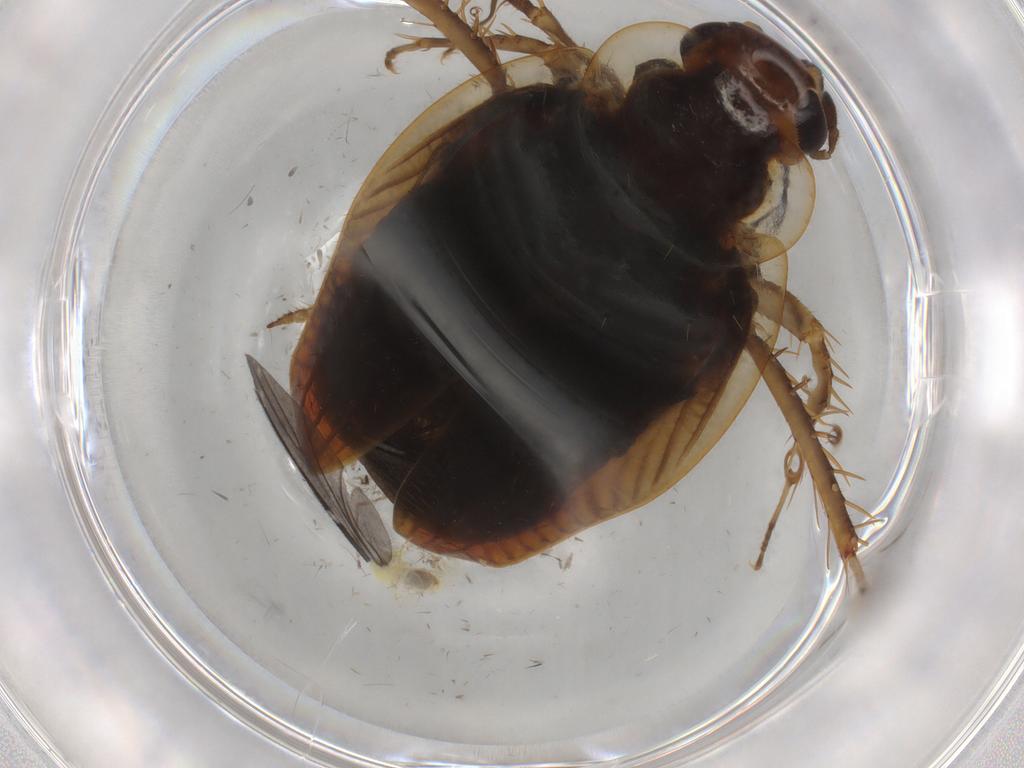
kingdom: Animalia
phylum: Arthropoda
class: Insecta
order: Blattodea
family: Ectobiidae
